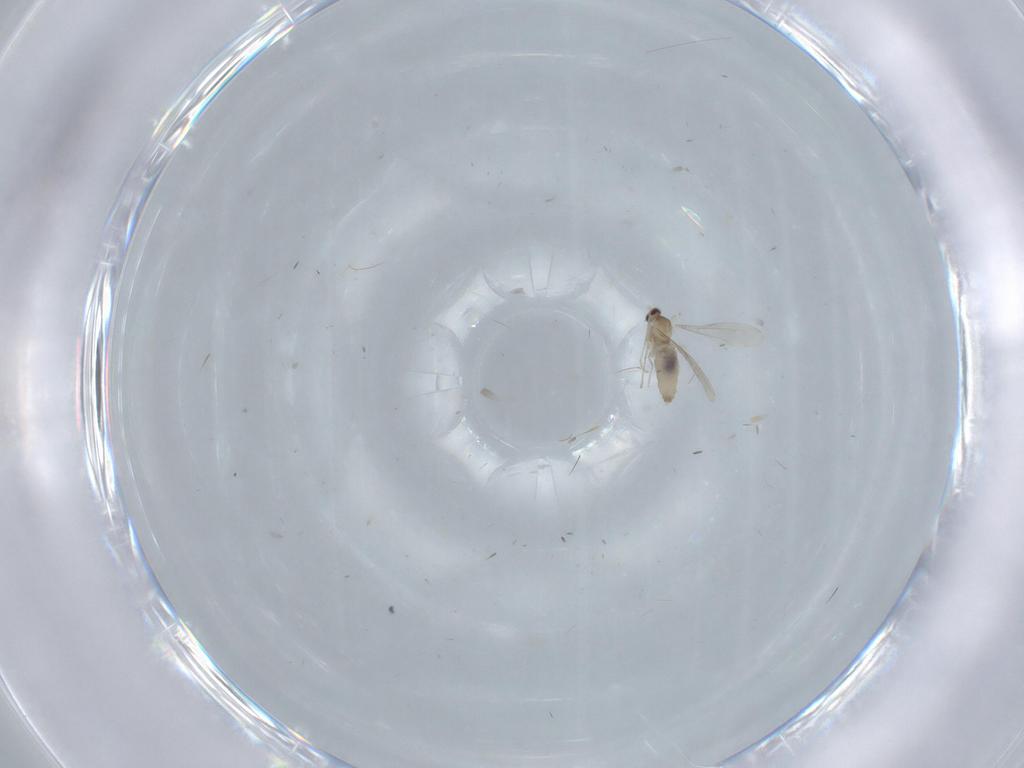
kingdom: Animalia
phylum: Arthropoda
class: Insecta
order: Diptera
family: Cecidomyiidae
